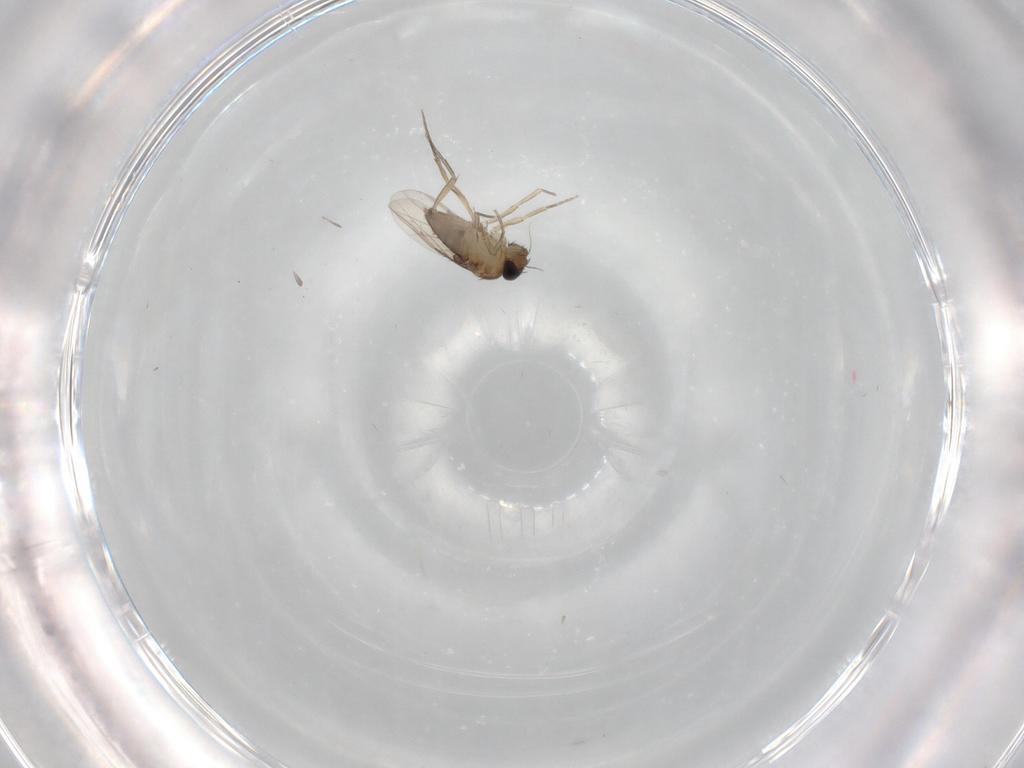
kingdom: Animalia
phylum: Arthropoda
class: Insecta
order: Diptera
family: Phoridae
